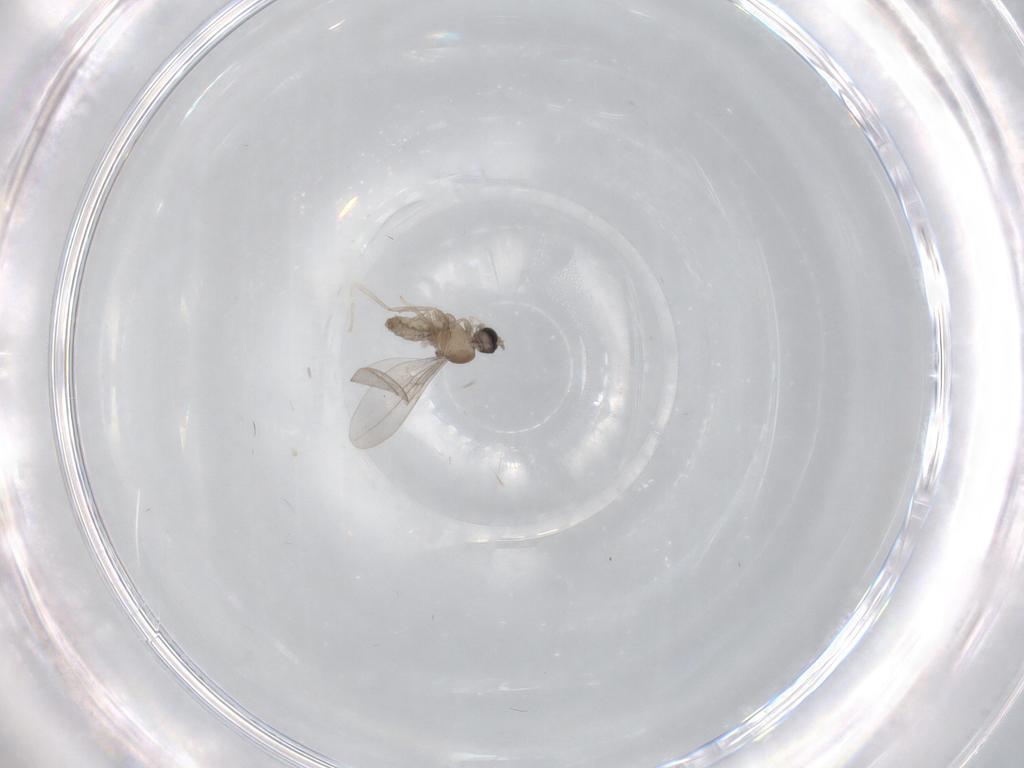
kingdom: Animalia
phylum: Arthropoda
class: Insecta
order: Diptera
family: Cecidomyiidae
